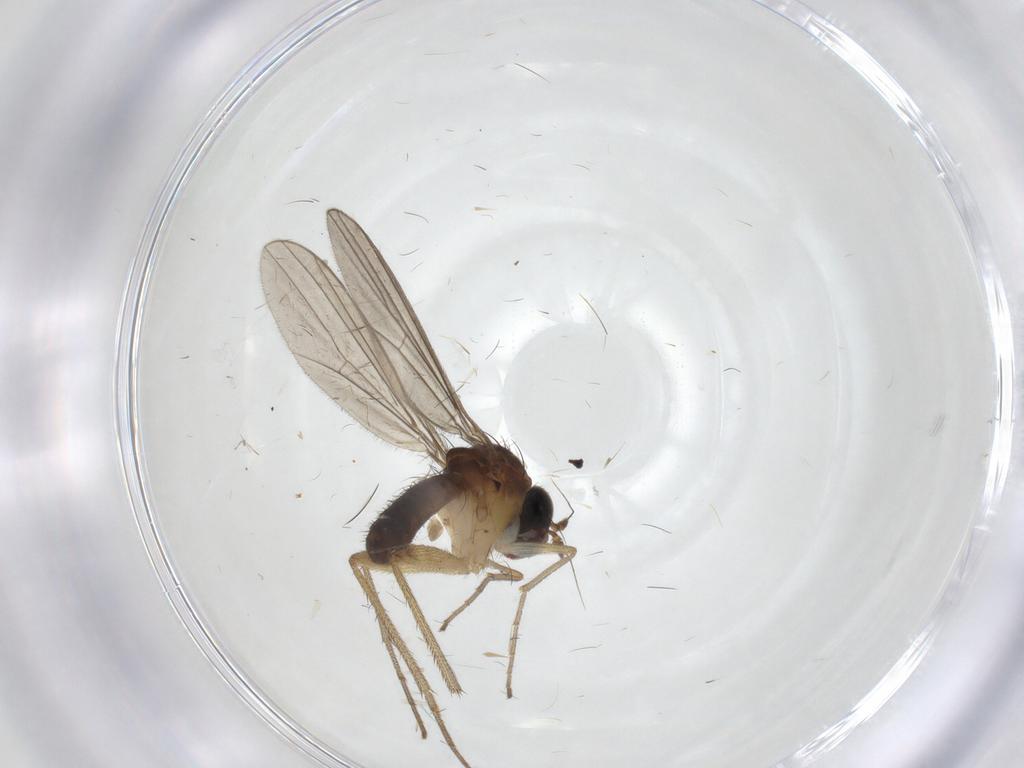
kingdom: Animalia
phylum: Arthropoda
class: Insecta
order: Diptera
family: Dolichopodidae
